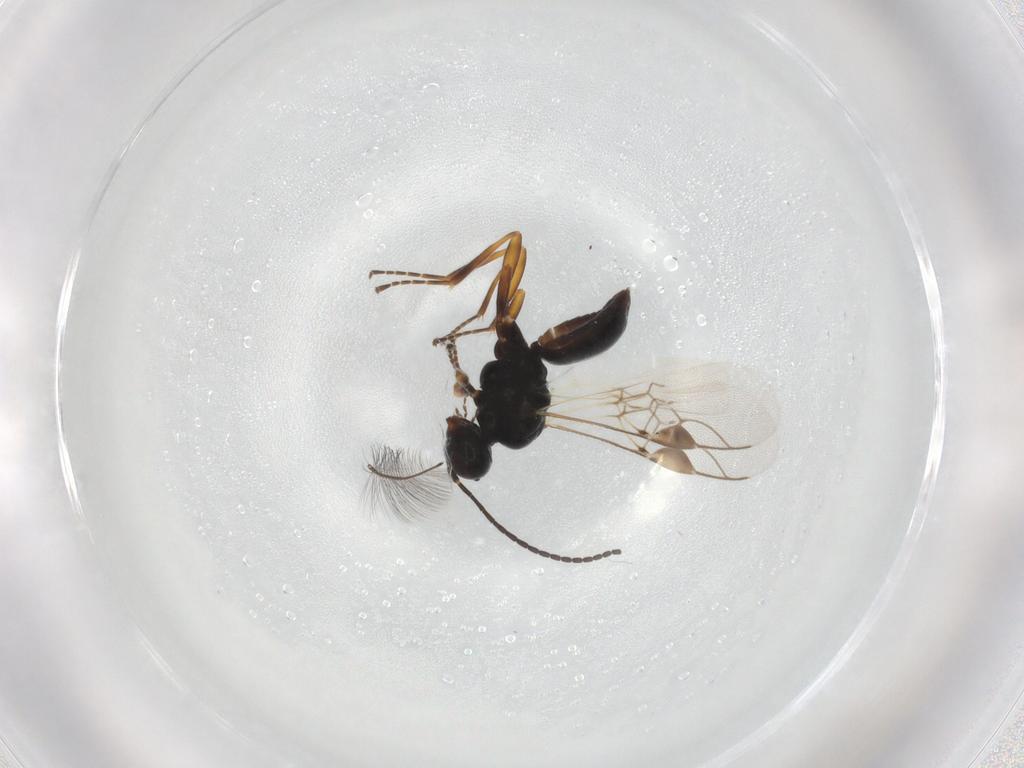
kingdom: Animalia
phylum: Arthropoda
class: Insecta
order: Hymenoptera
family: Braconidae
